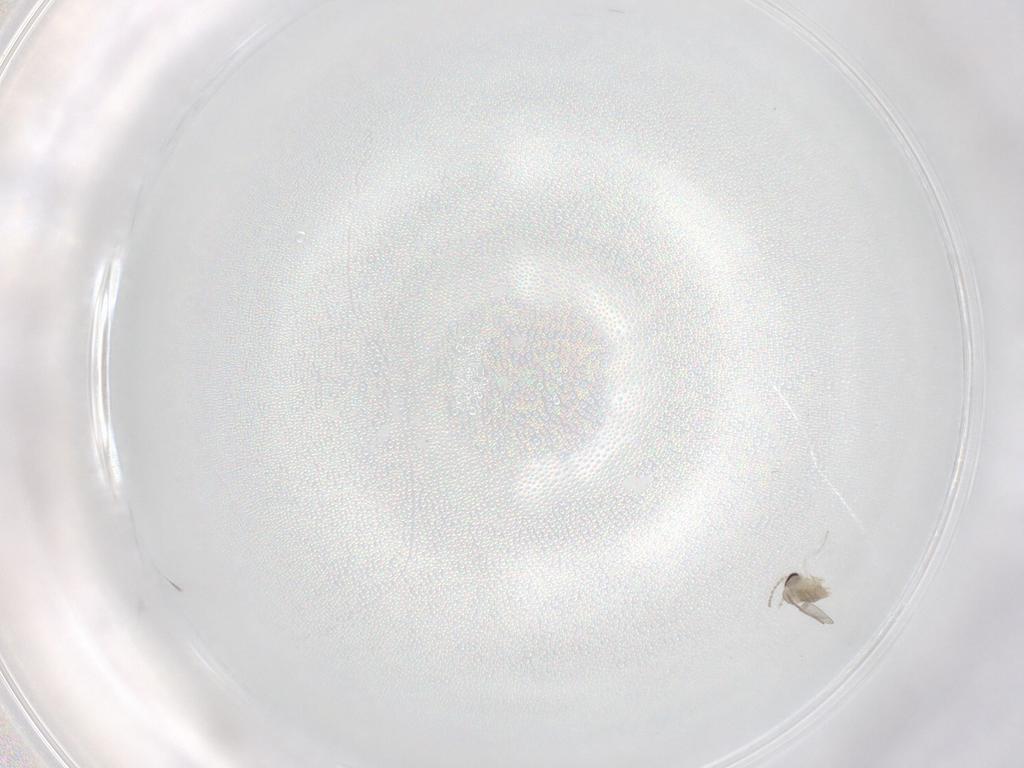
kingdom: Animalia
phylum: Arthropoda
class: Insecta
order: Diptera
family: Cecidomyiidae
